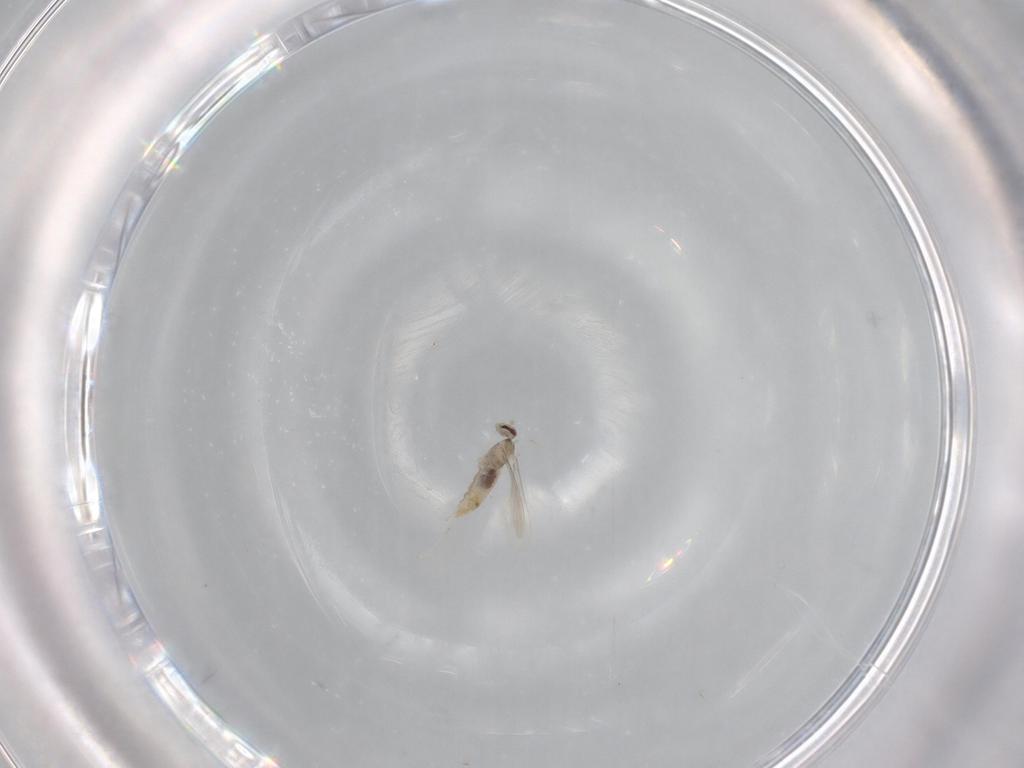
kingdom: Animalia
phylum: Arthropoda
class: Insecta
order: Diptera
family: Cecidomyiidae
